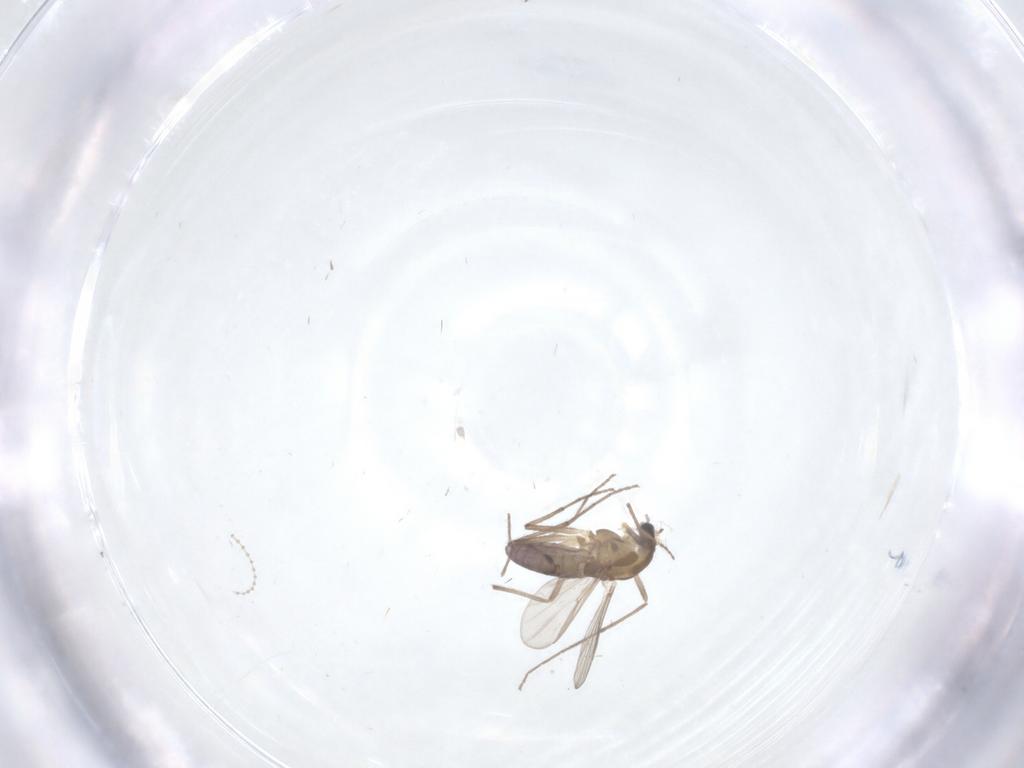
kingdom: Animalia
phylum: Arthropoda
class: Insecta
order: Diptera
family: Cecidomyiidae
